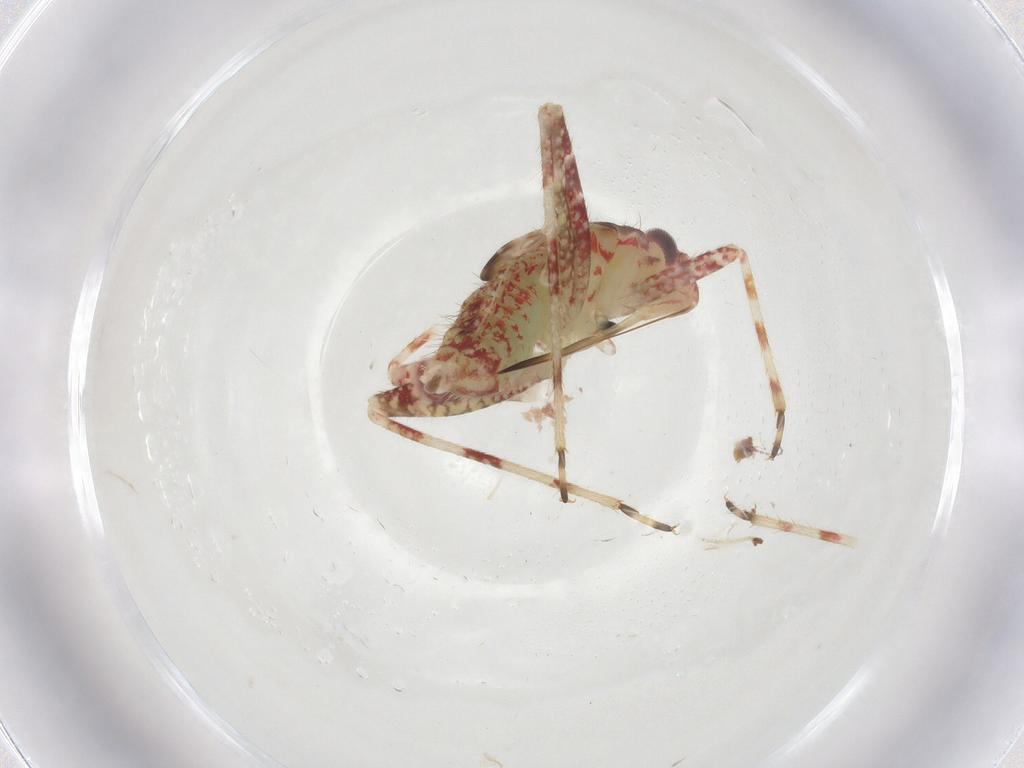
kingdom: Animalia
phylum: Arthropoda
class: Insecta
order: Hemiptera
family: Miridae
